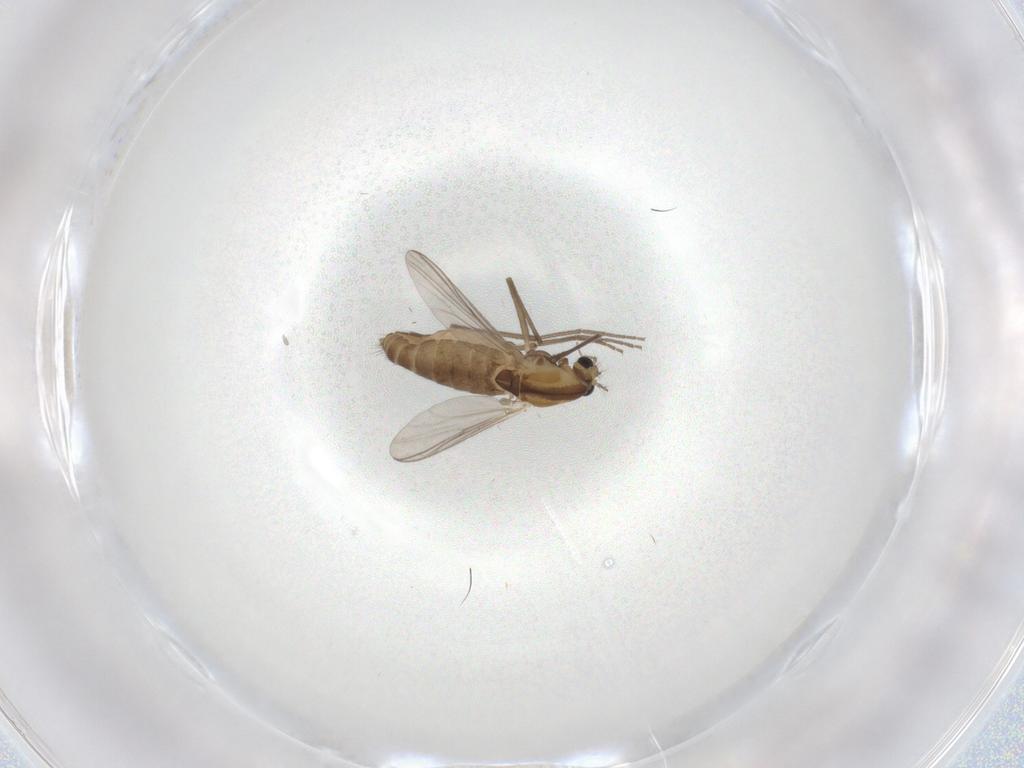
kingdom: Animalia
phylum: Arthropoda
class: Insecta
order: Diptera
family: Chironomidae
